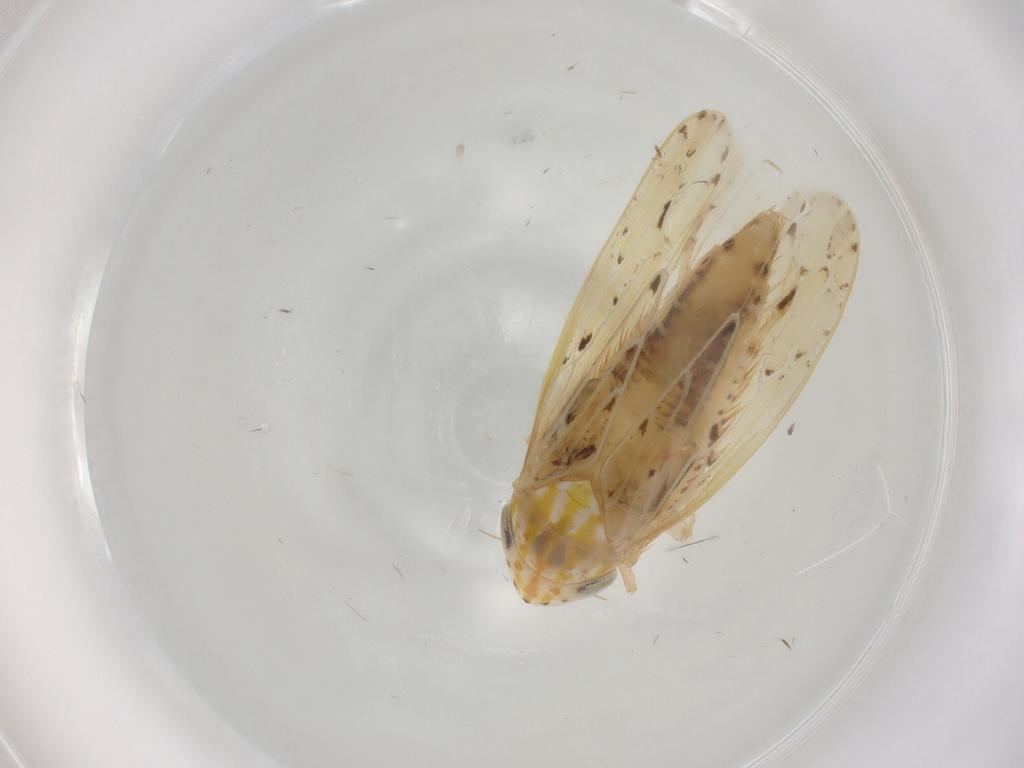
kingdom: Animalia
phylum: Arthropoda
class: Insecta
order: Hemiptera
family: Cicadellidae
